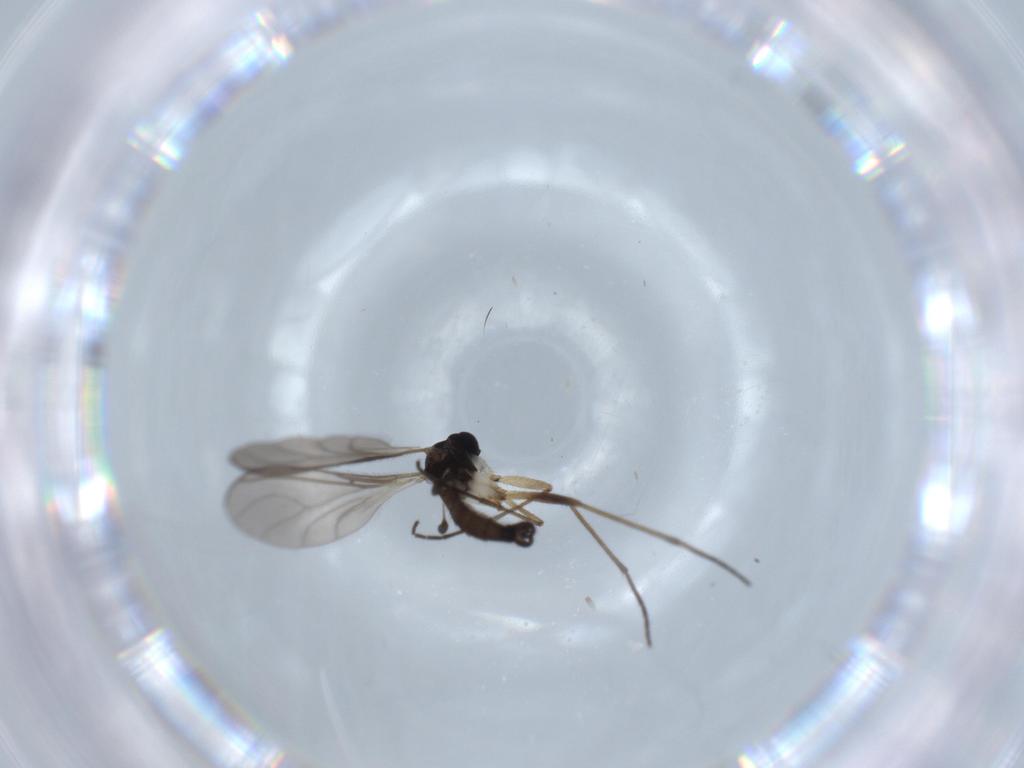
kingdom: Animalia
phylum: Arthropoda
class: Insecta
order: Diptera
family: Sciaridae
